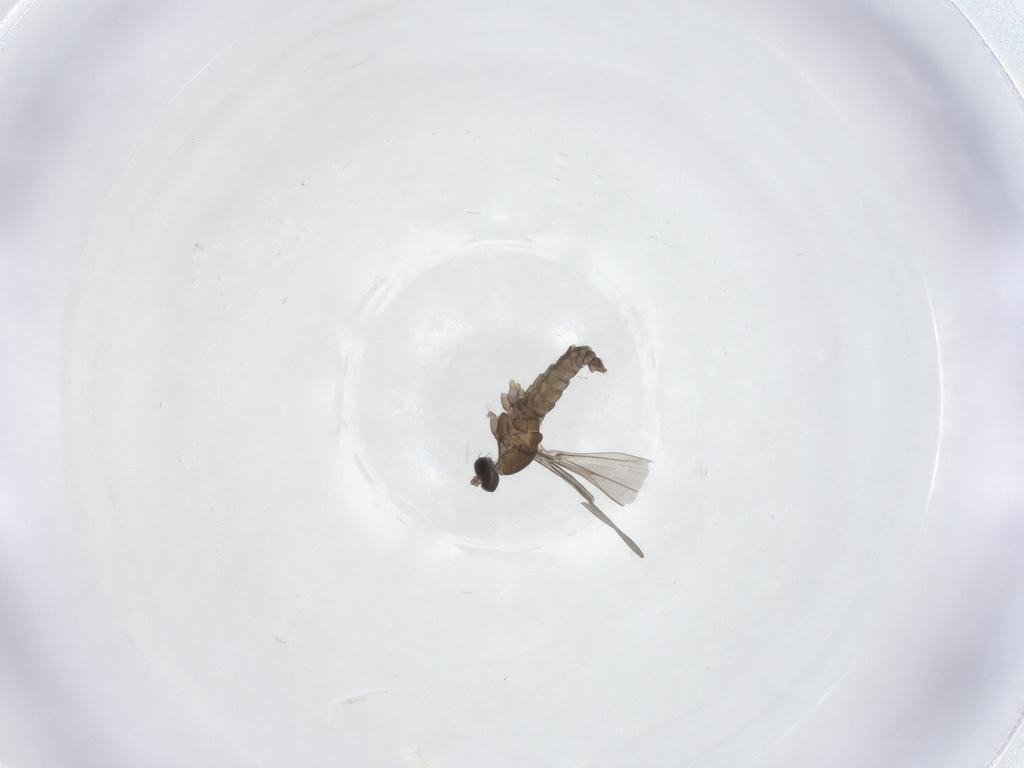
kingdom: Animalia
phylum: Arthropoda
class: Insecta
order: Diptera
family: Cecidomyiidae
